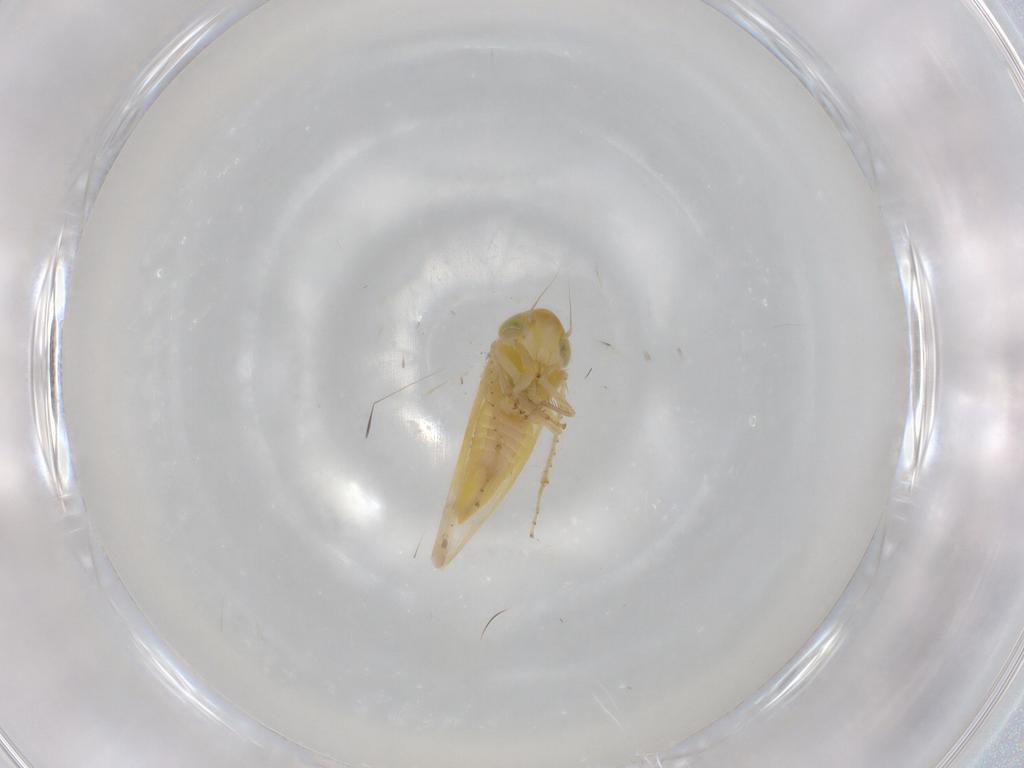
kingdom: Animalia
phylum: Arthropoda
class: Insecta
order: Hemiptera
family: Cicadellidae
